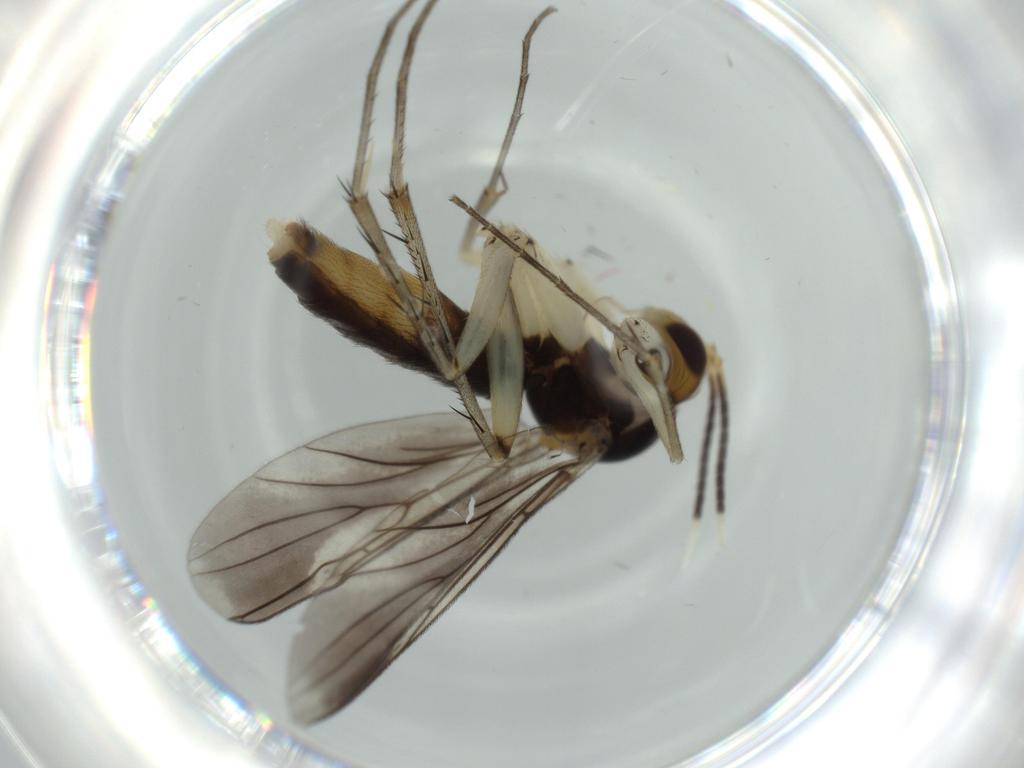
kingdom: Animalia
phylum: Arthropoda
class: Insecta
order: Diptera
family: Mycetophilidae
